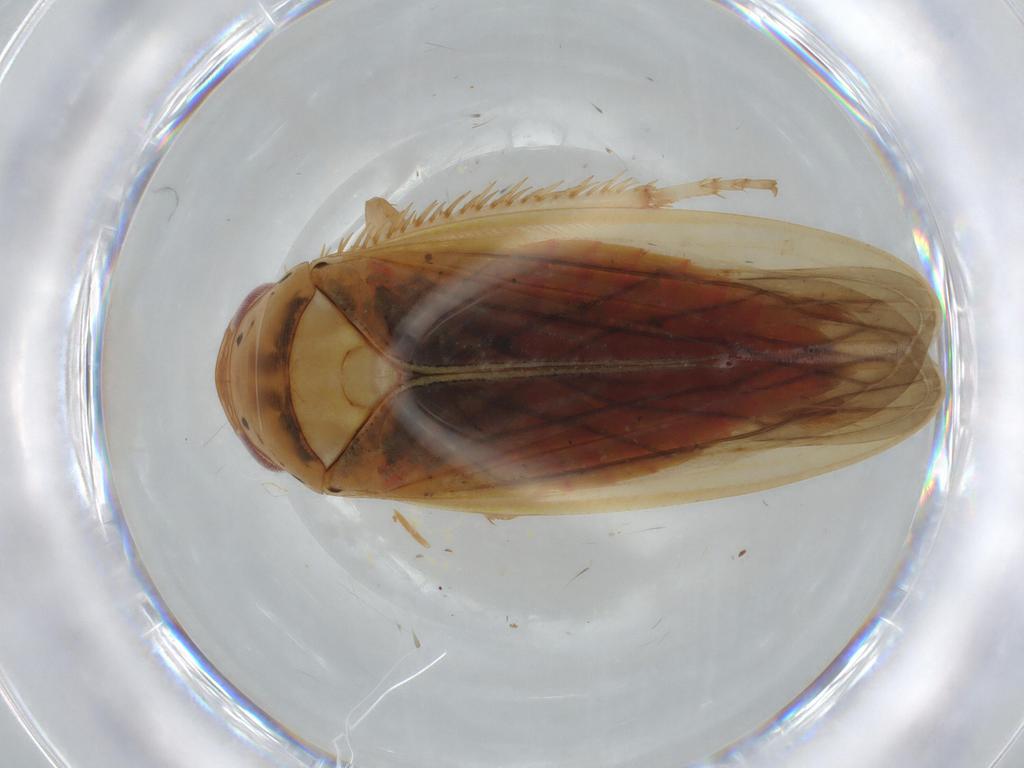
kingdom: Animalia
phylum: Arthropoda
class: Insecta
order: Hemiptera
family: Cicadellidae
